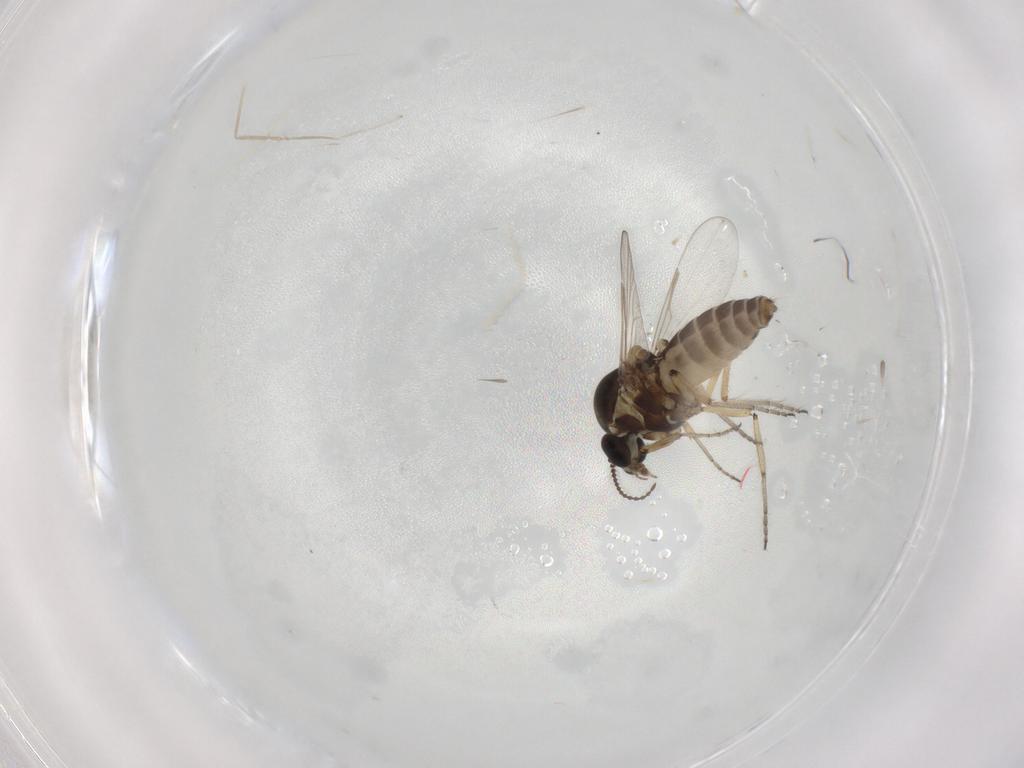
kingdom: Animalia
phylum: Arthropoda
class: Insecta
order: Diptera
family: Ceratopogonidae
